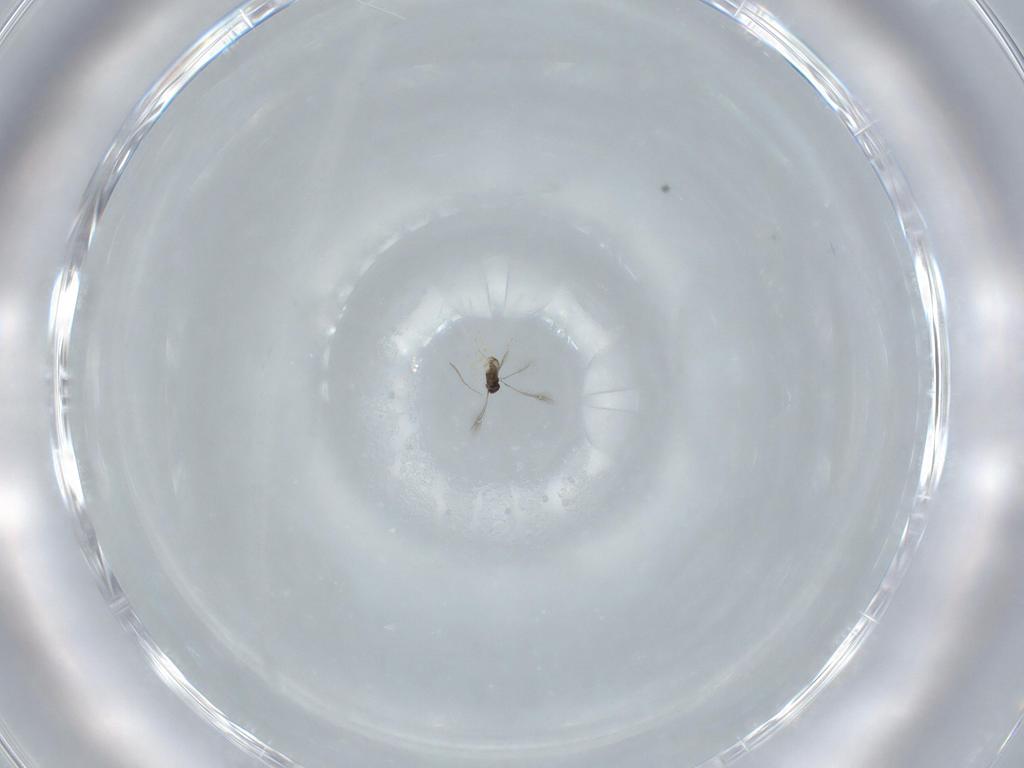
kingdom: Animalia
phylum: Arthropoda
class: Insecta
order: Hymenoptera
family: Mymaridae
